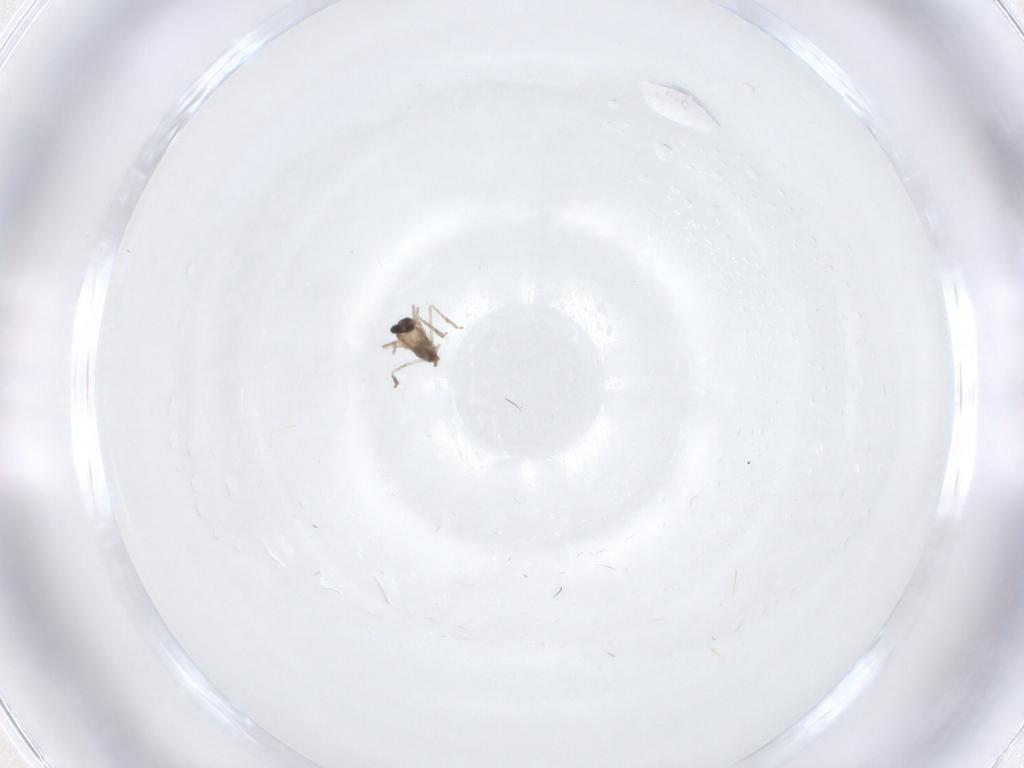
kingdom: Animalia
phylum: Arthropoda
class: Insecta
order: Diptera
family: Cecidomyiidae
